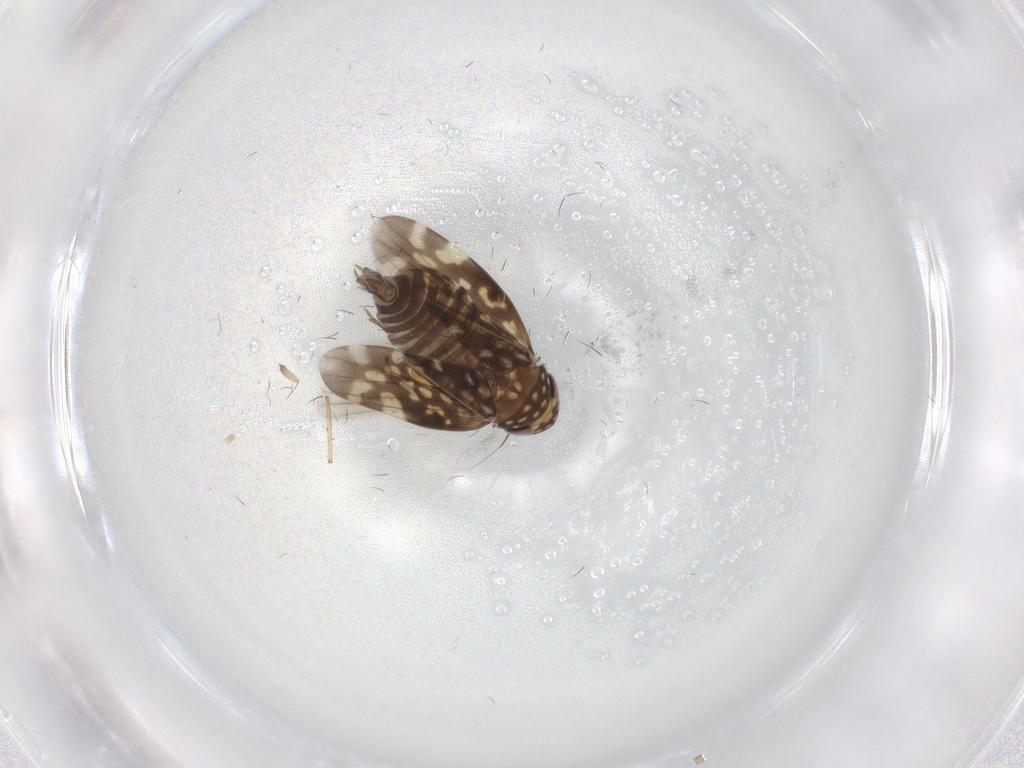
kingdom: Animalia
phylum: Arthropoda
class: Insecta
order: Hemiptera
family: Cicadellidae
